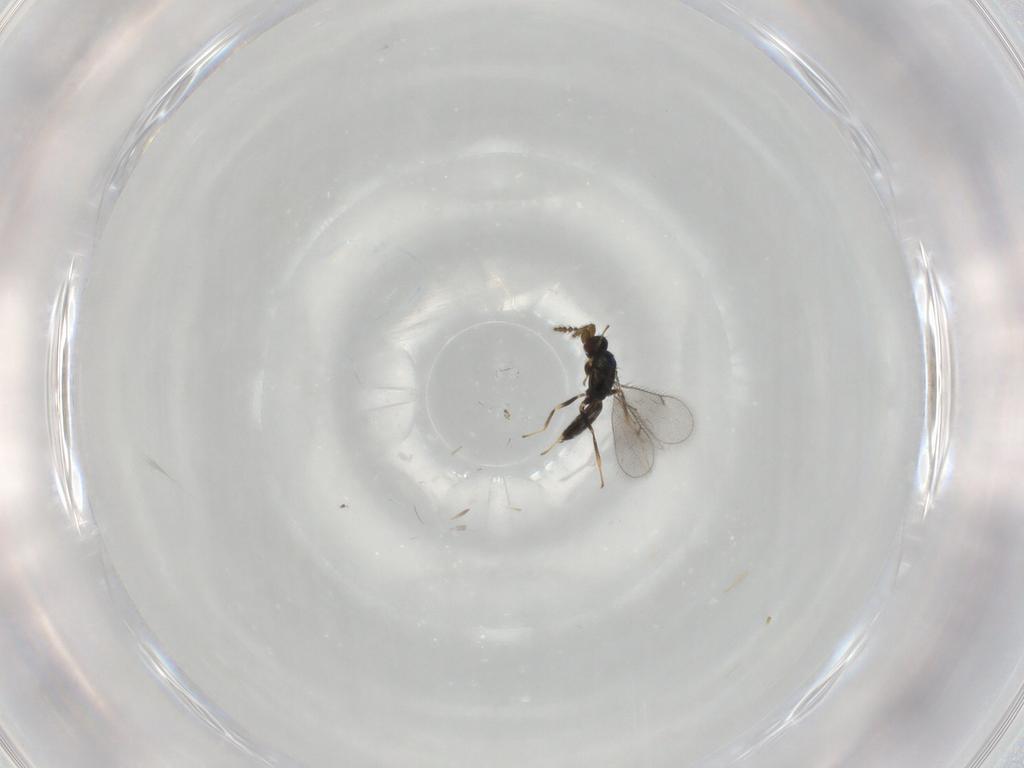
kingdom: Animalia
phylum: Arthropoda
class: Insecta
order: Hymenoptera
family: Eulophidae
